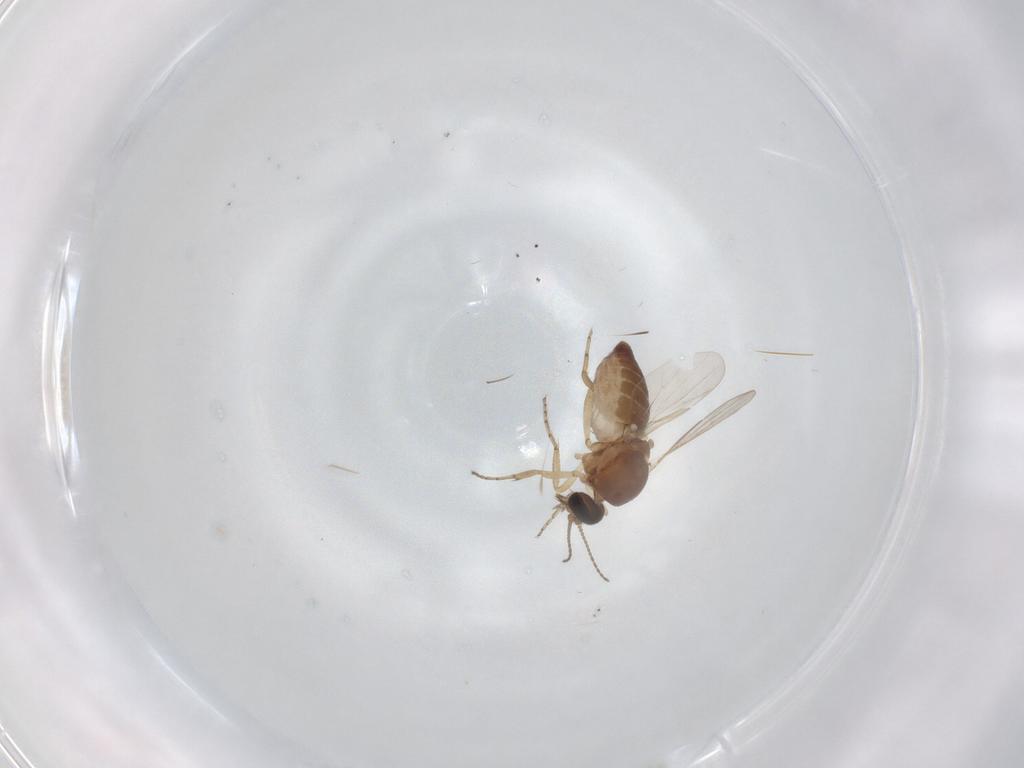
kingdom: Animalia
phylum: Arthropoda
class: Insecta
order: Diptera
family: Ceratopogonidae
